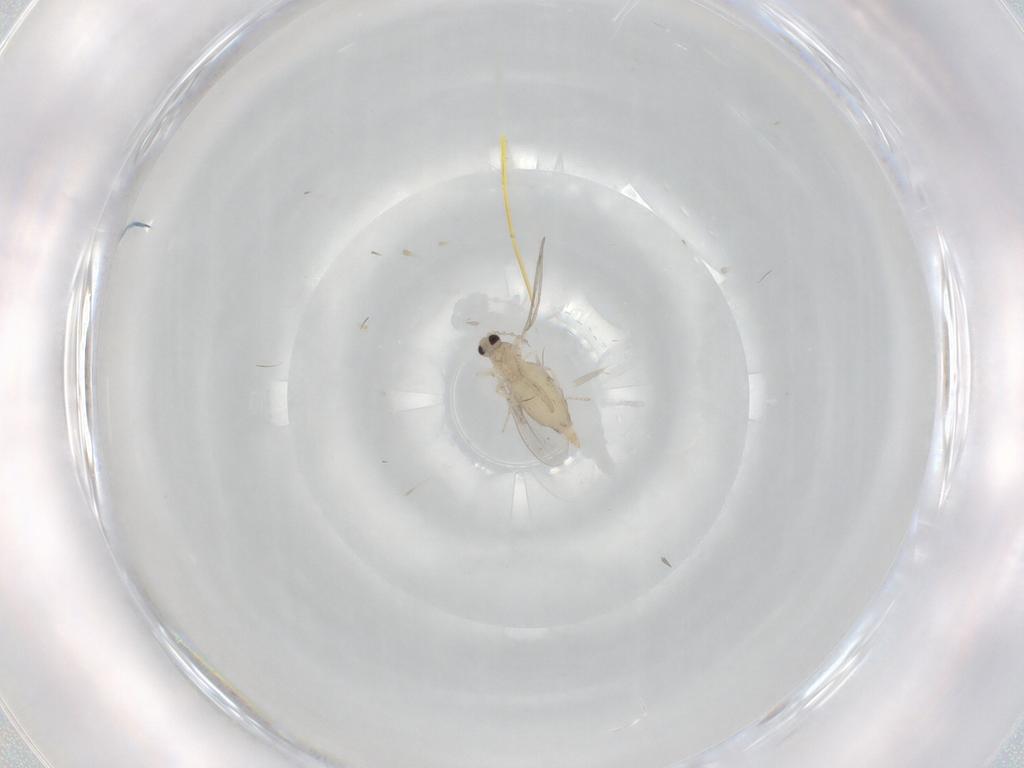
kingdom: Animalia
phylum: Arthropoda
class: Insecta
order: Diptera
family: Cecidomyiidae
